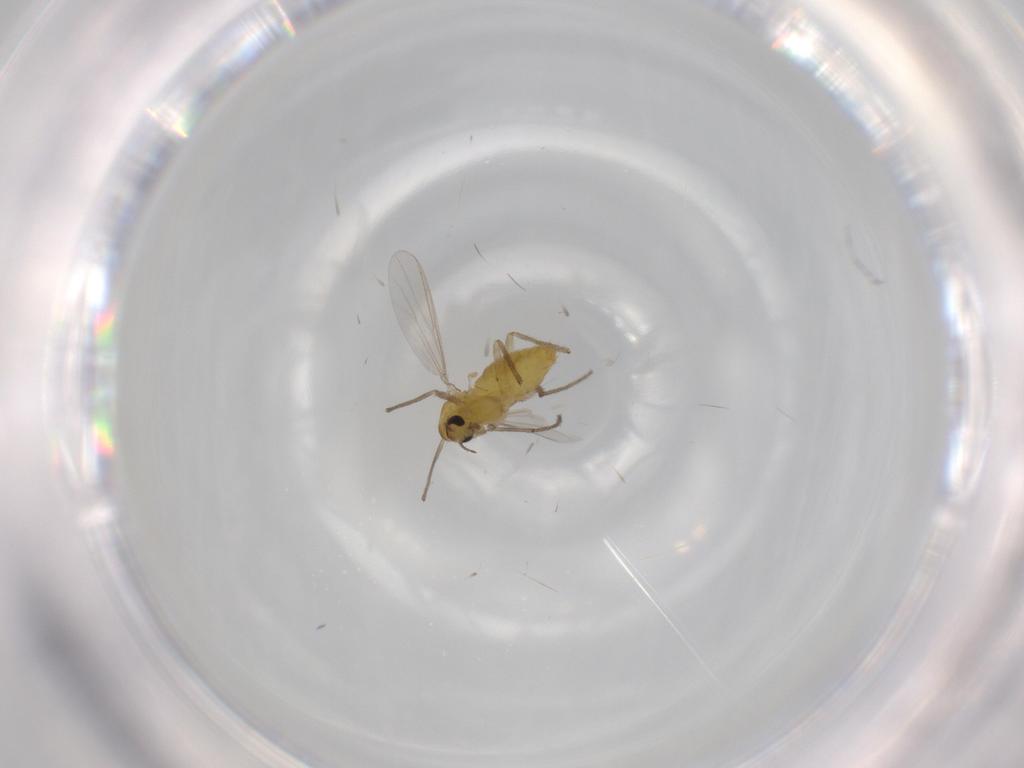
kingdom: Animalia
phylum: Arthropoda
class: Insecta
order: Diptera
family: Chironomidae
